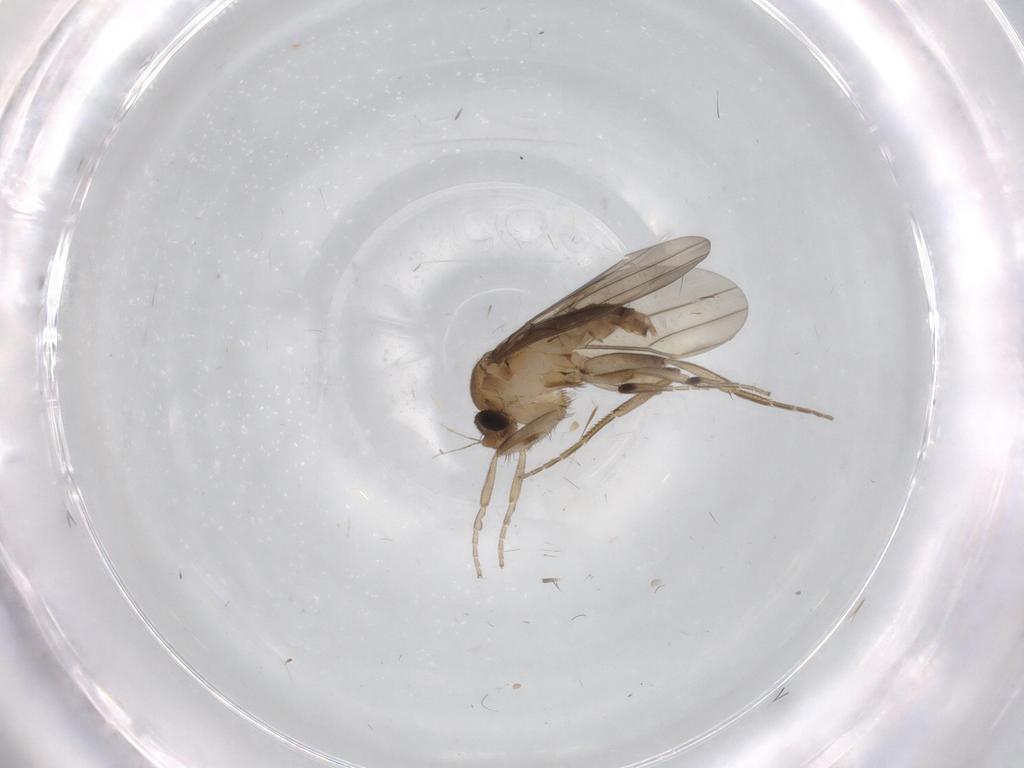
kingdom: Animalia
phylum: Arthropoda
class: Insecta
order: Diptera
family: Phoridae
